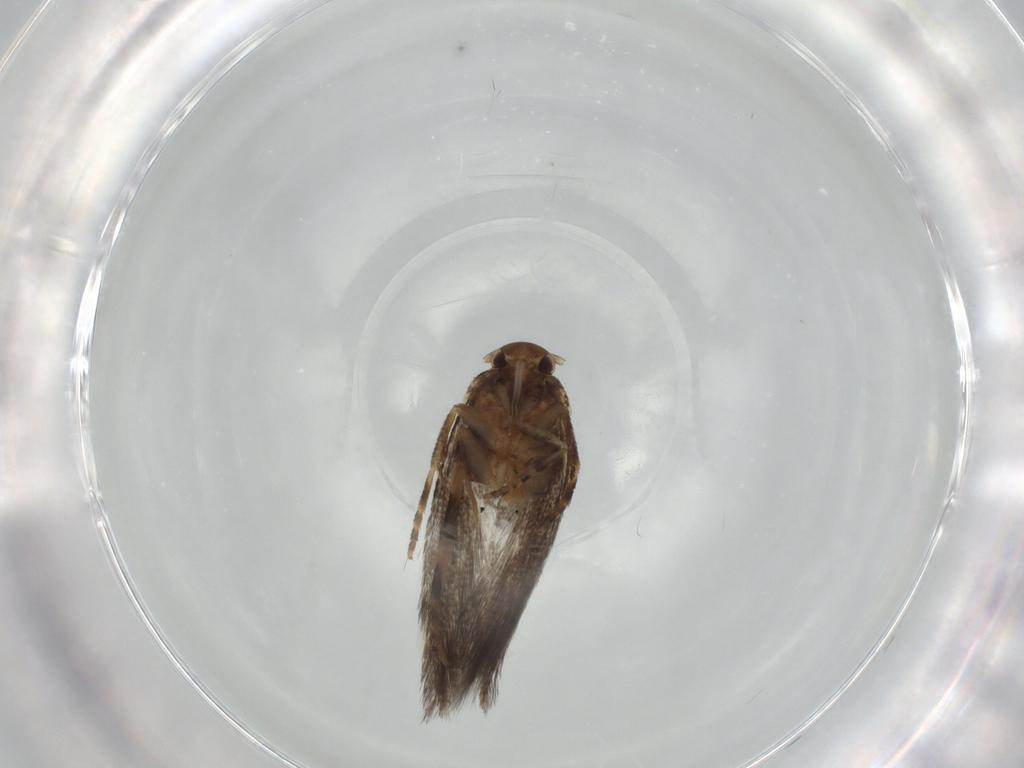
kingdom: Animalia
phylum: Arthropoda
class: Insecta
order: Lepidoptera
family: Elachistidae
